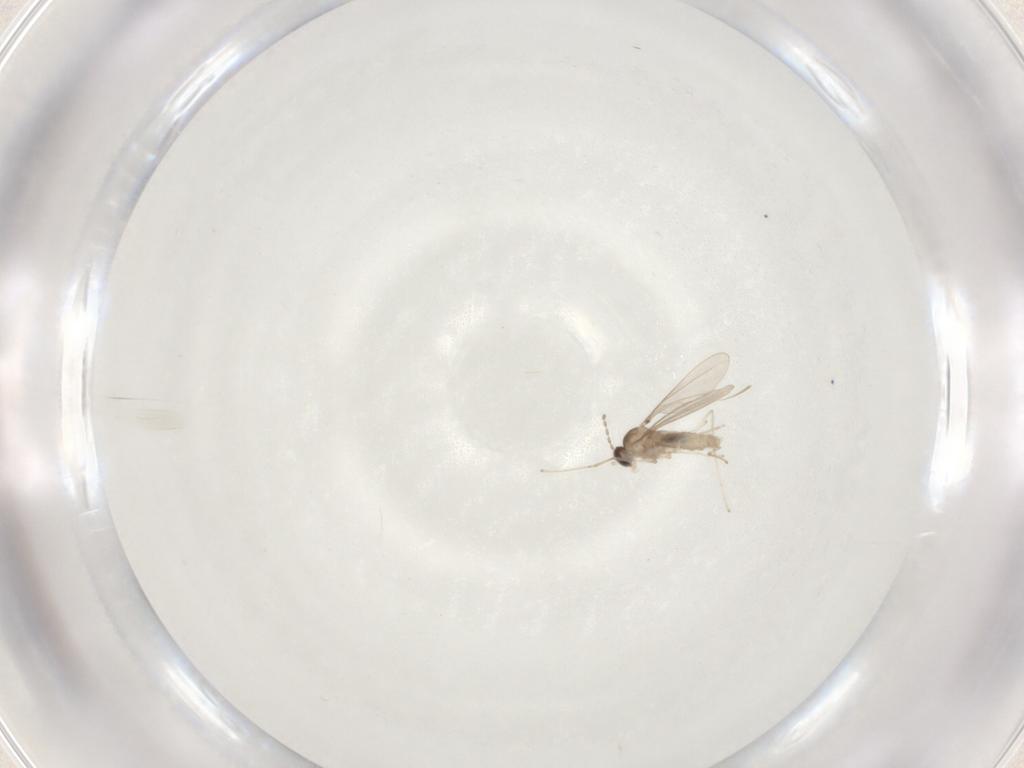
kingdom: Animalia
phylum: Arthropoda
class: Insecta
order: Diptera
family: Cecidomyiidae
